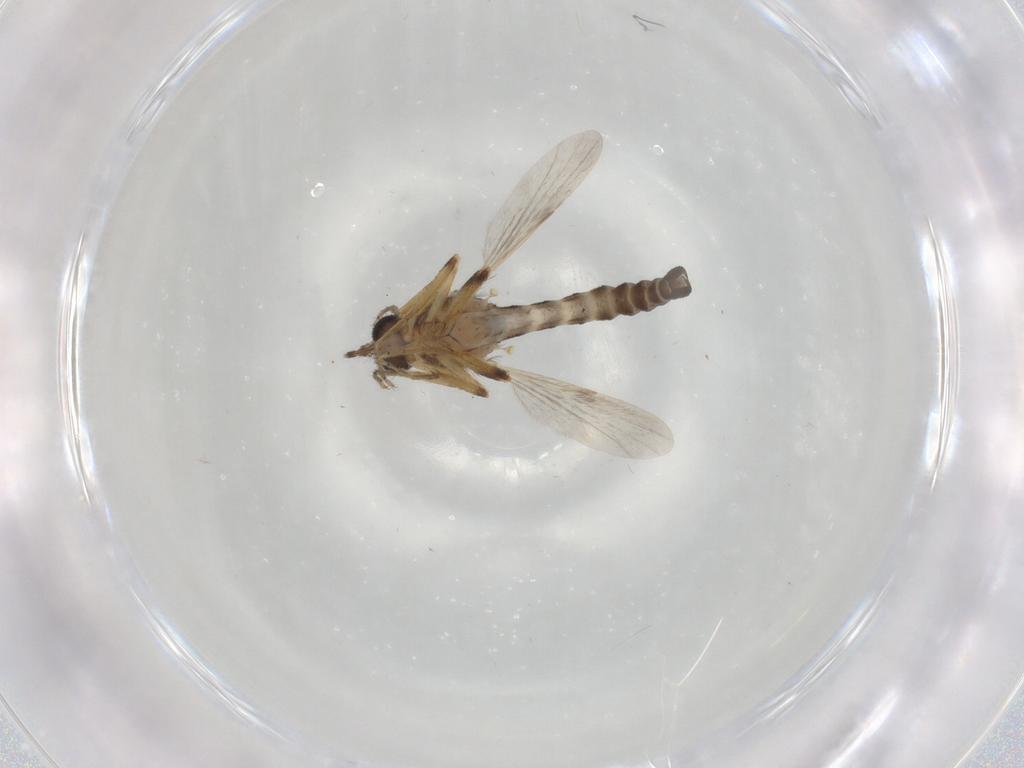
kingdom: Animalia
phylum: Arthropoda
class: Insecta
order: Diptera
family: Ceratopogonidae
